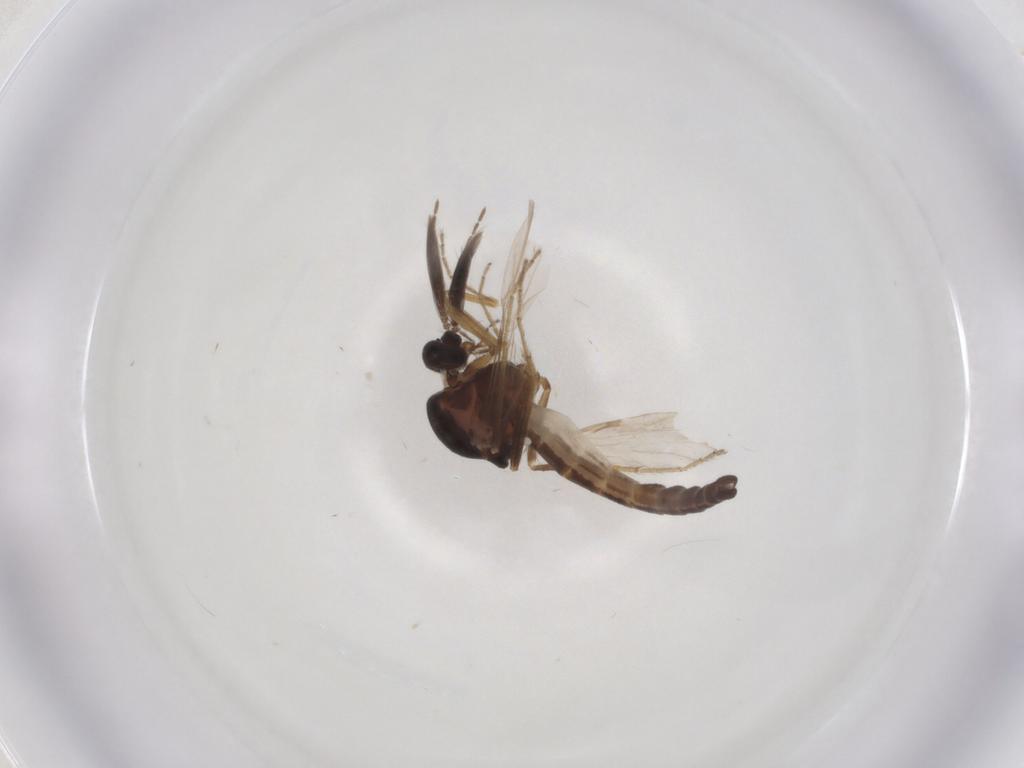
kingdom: Animalia
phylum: Arthropoda
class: Insecta
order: Diptera
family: Ceratopogonidae
